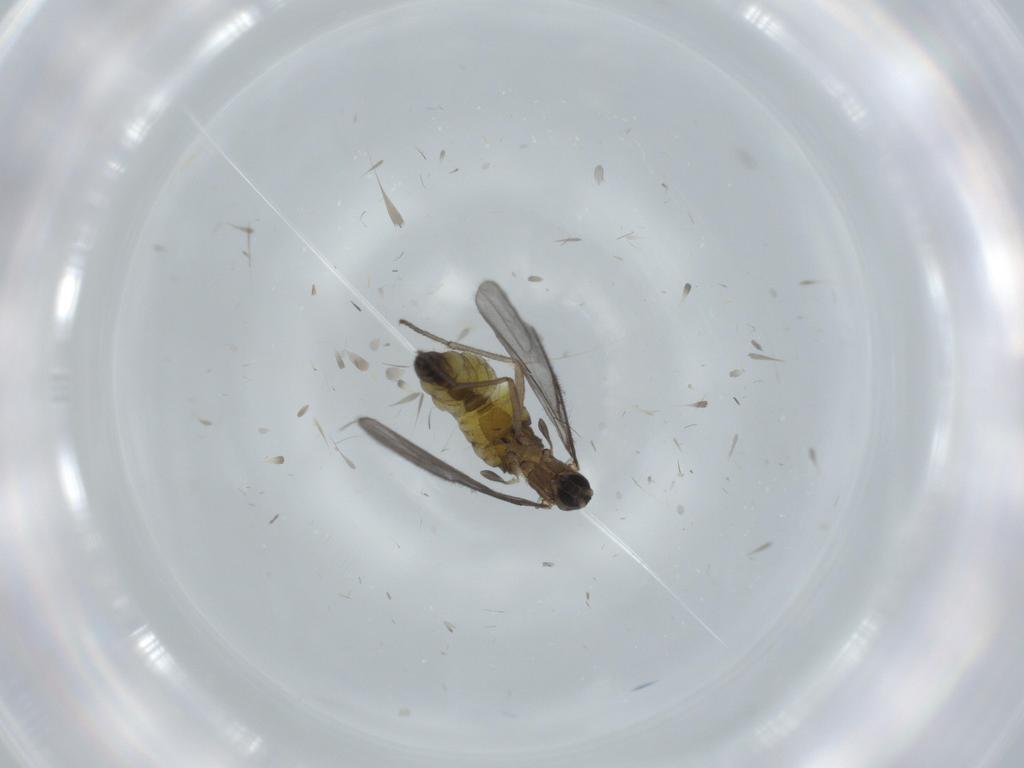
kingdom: Animalia
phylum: Arthropoda
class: Insecta
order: Diptera
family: Sciaridae
